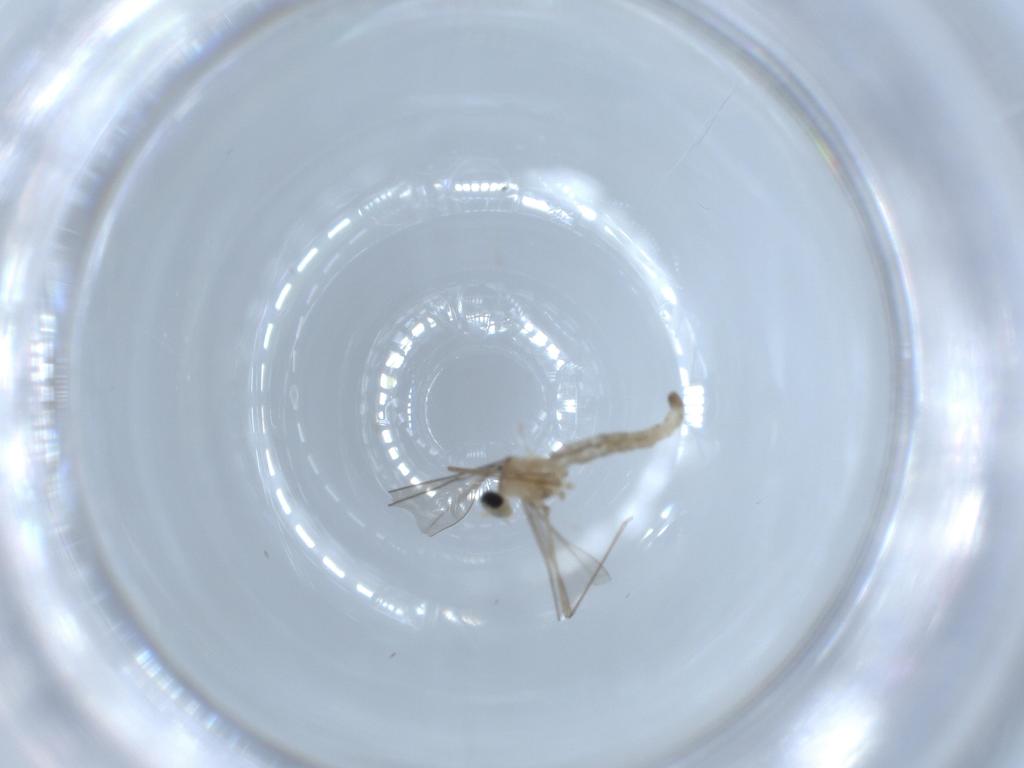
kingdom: Animalia
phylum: Arthropoda
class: Insecta
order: Diptera
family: Cecidomyiidae
